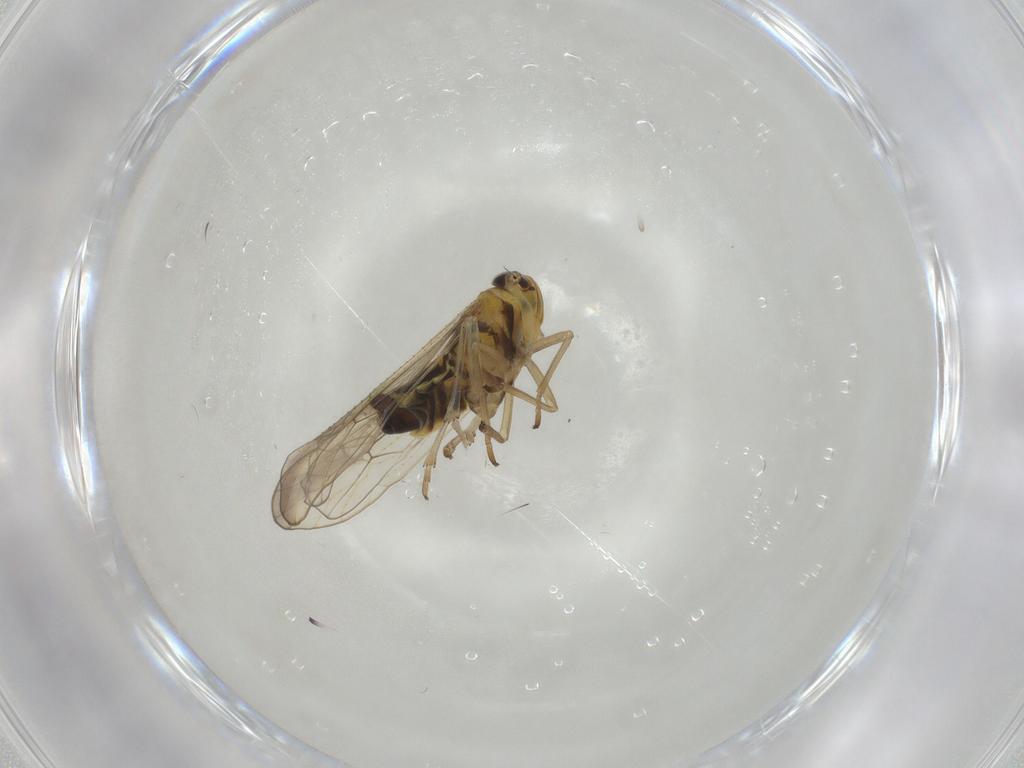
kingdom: Animalia
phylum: Arthropoda
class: Insecta
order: Hemiptera
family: Delphacidae
